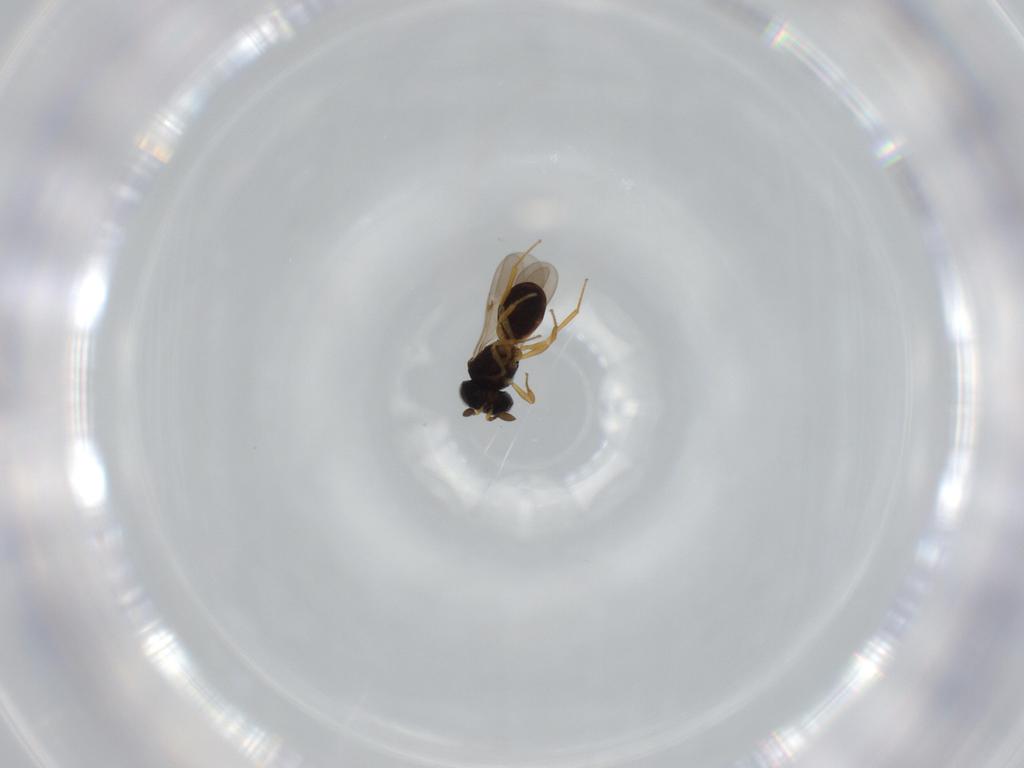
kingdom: Animalia
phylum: Arthropoda
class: Insecta
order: Hymenoptera
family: Scelionidae
